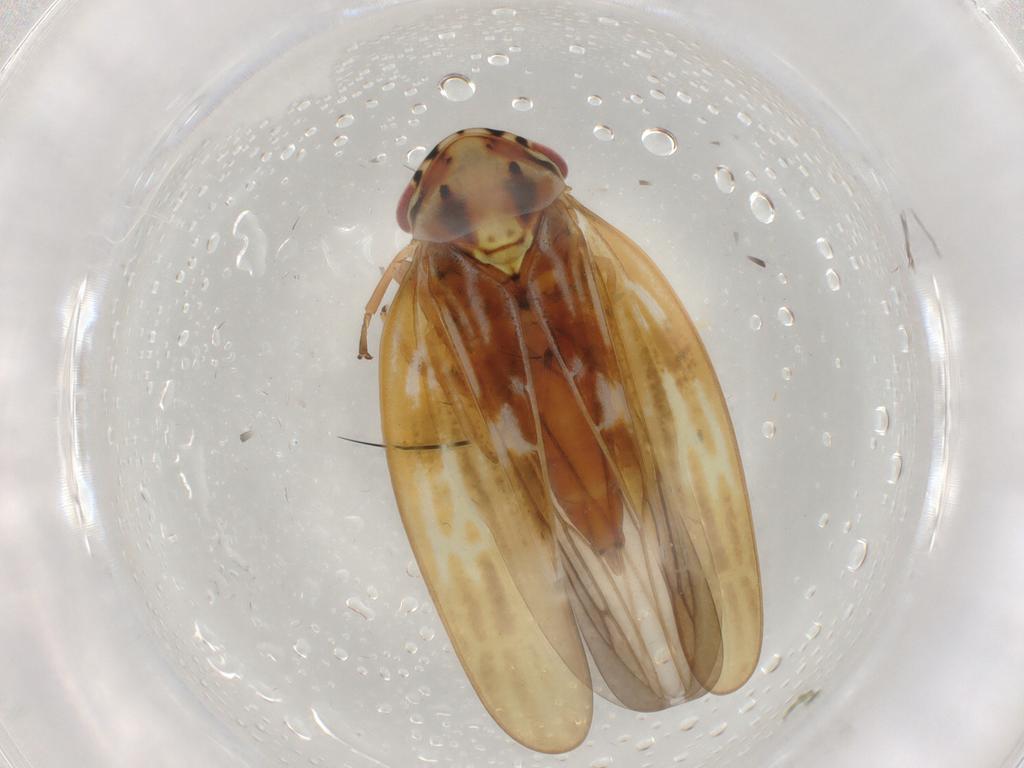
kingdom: Animalia
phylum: Arthropoda
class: Insecta
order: Hemiptera
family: Cicadellidae
